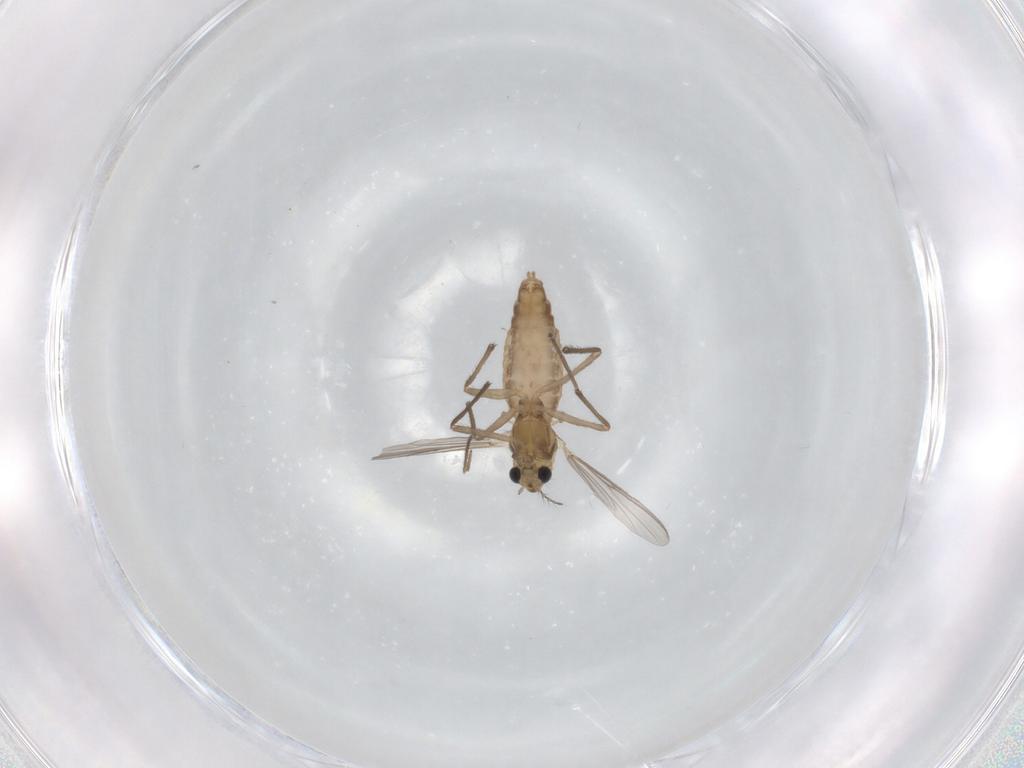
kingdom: Animalia
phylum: Arthropoda
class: Insecta
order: Diptera
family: Chironomidae
